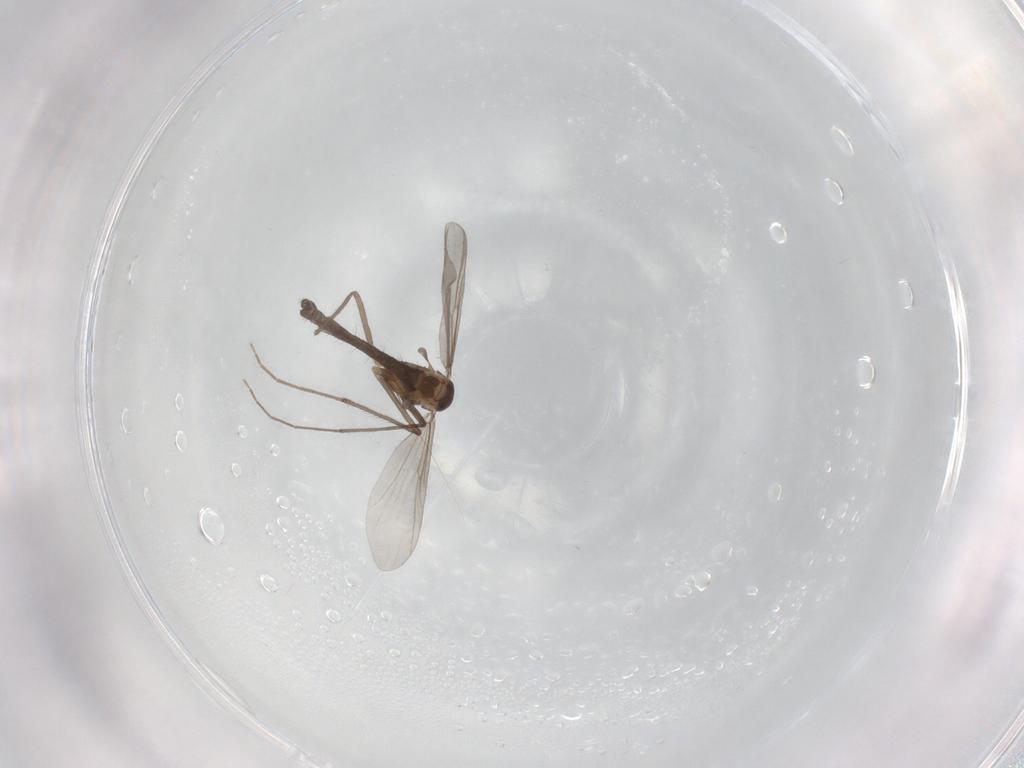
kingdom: Animalia
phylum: Arthropoda
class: Insecta
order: Diptera
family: Chironomidae
